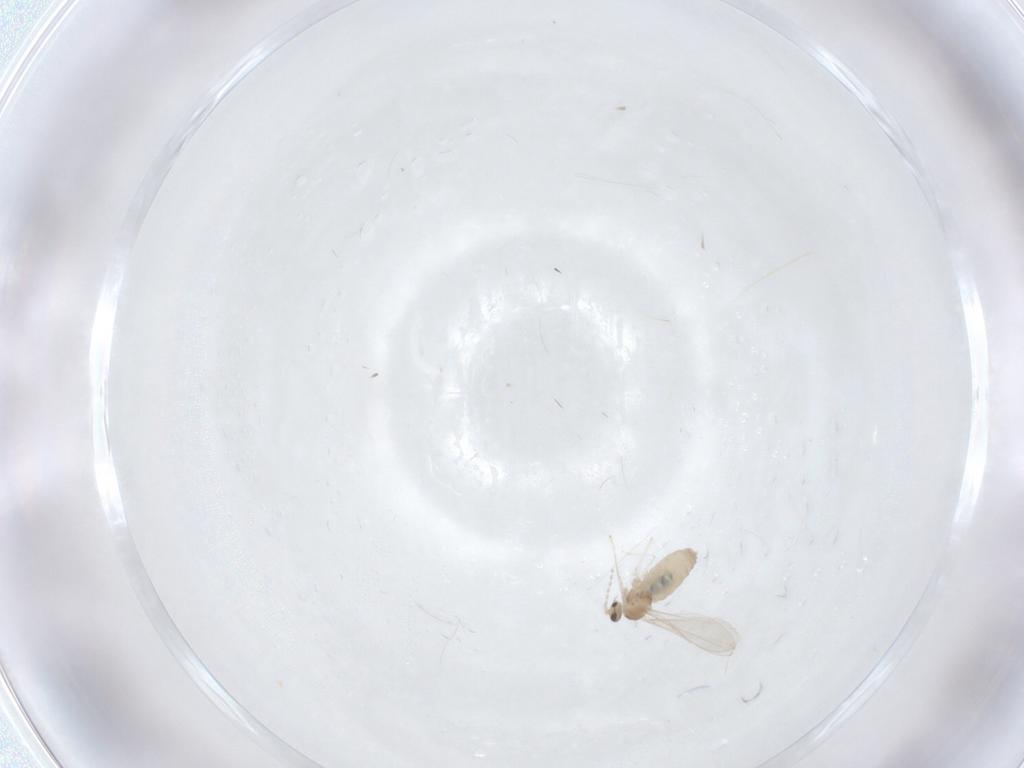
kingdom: Animalia
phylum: Arthropoda
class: Insecta
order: Diptera
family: Cecidomyiidae
